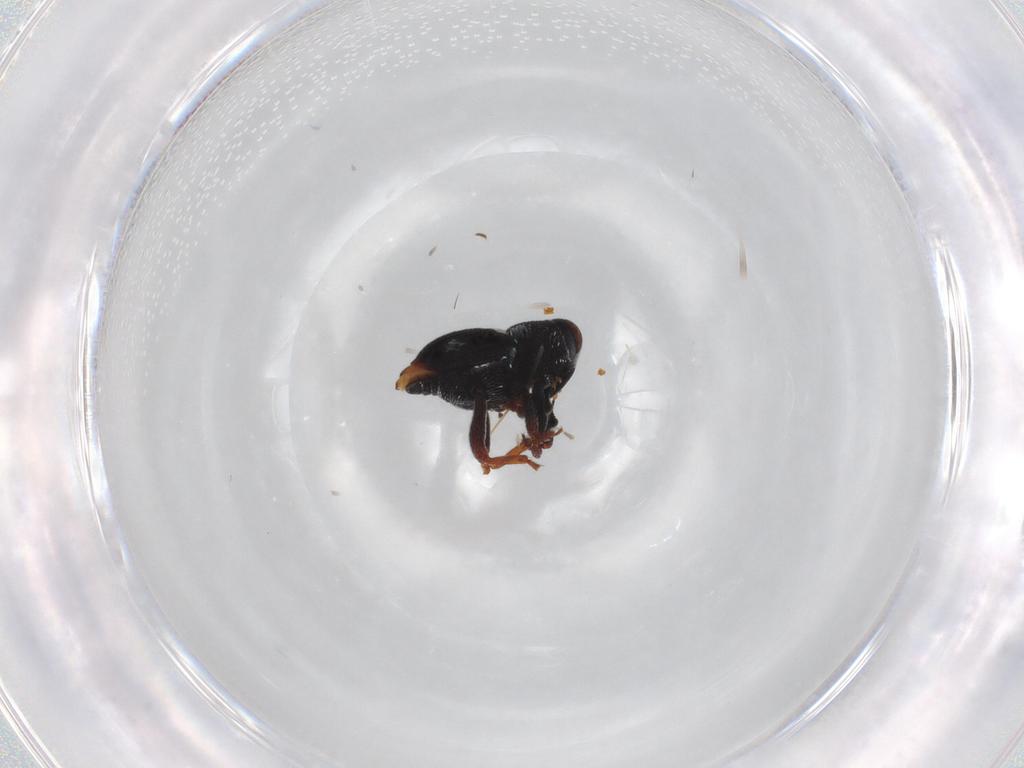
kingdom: Animalia
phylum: Arthropoda
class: Insecta
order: Coleoptera
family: Curculionidae
